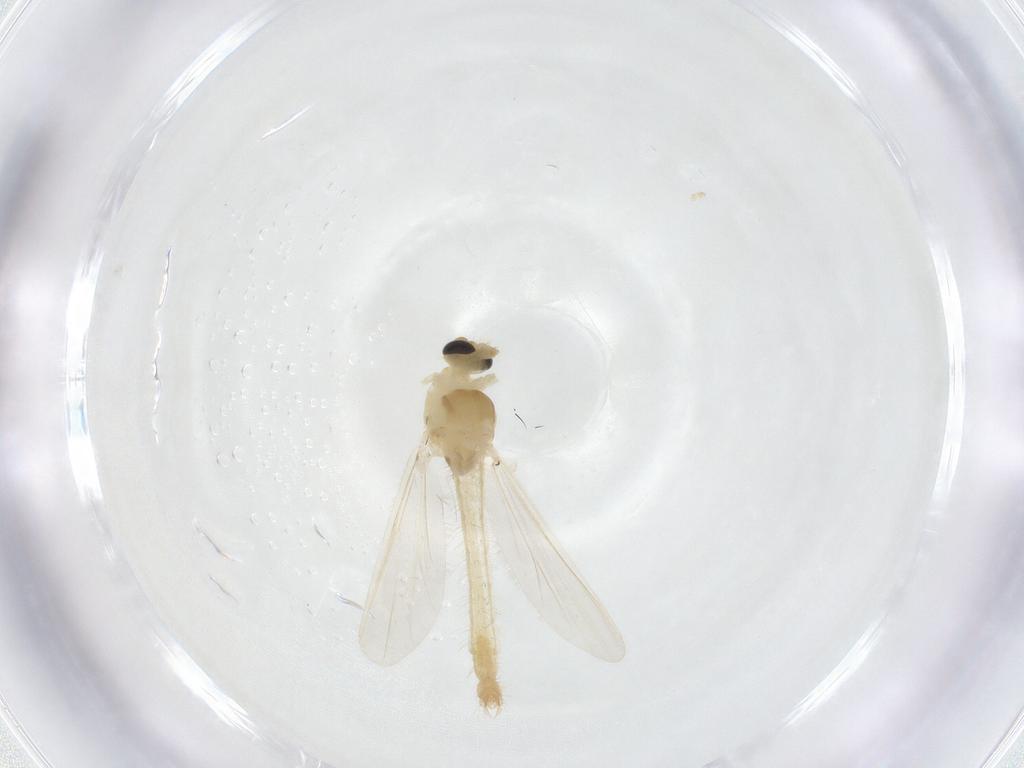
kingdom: Animalia
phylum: Arthropoda
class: Insecta
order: Diptera
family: Chironomidae
